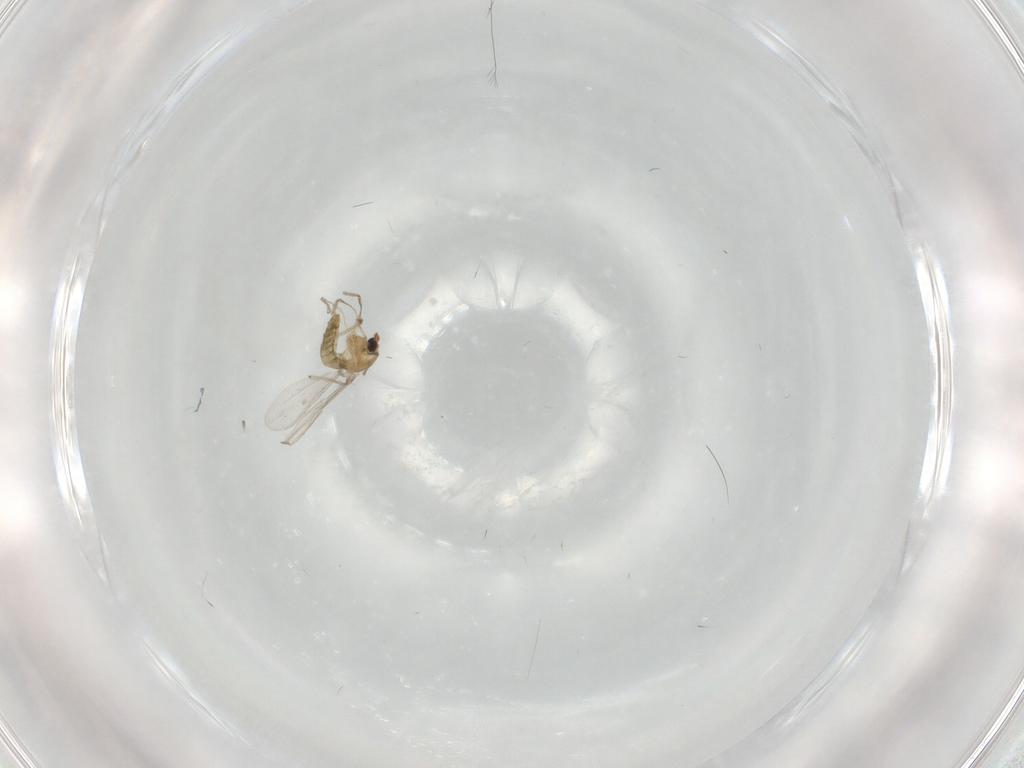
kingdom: Animalia
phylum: Arthropoda
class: Insecta
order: Diptera
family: Chironomidae
